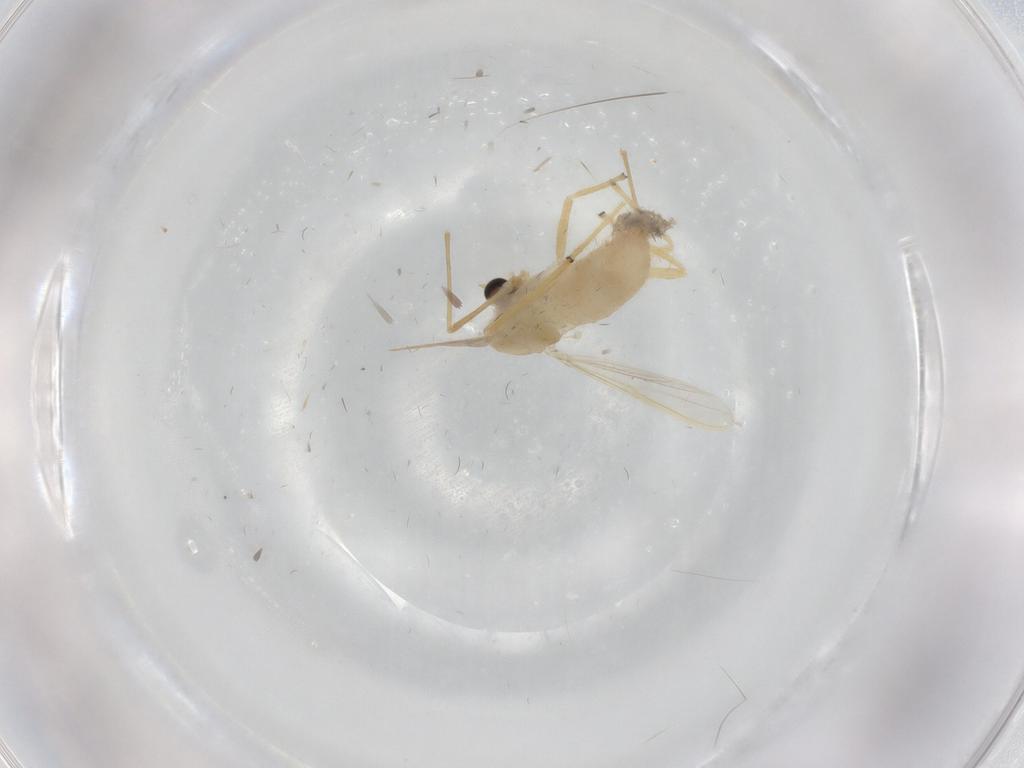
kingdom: Animalia
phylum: Arthropoda
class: Insecta
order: Diptera
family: Chironomidae
